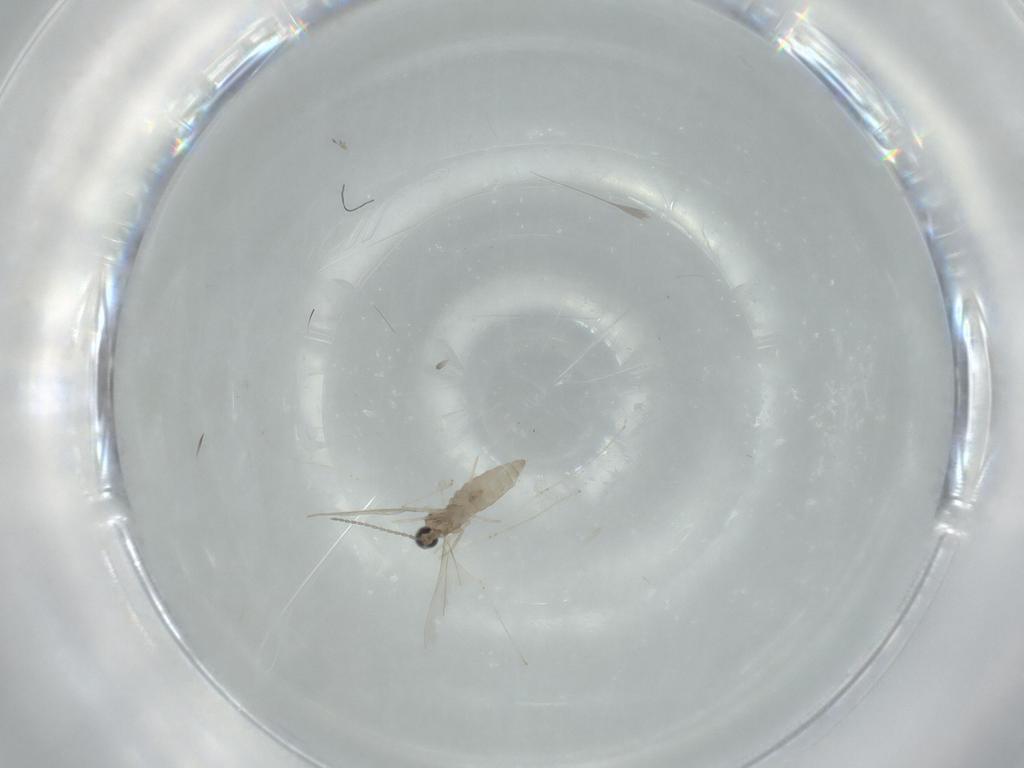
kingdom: Animalia
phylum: Arthropoda
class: Insecta
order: Diptera
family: Cecidomyiidae
